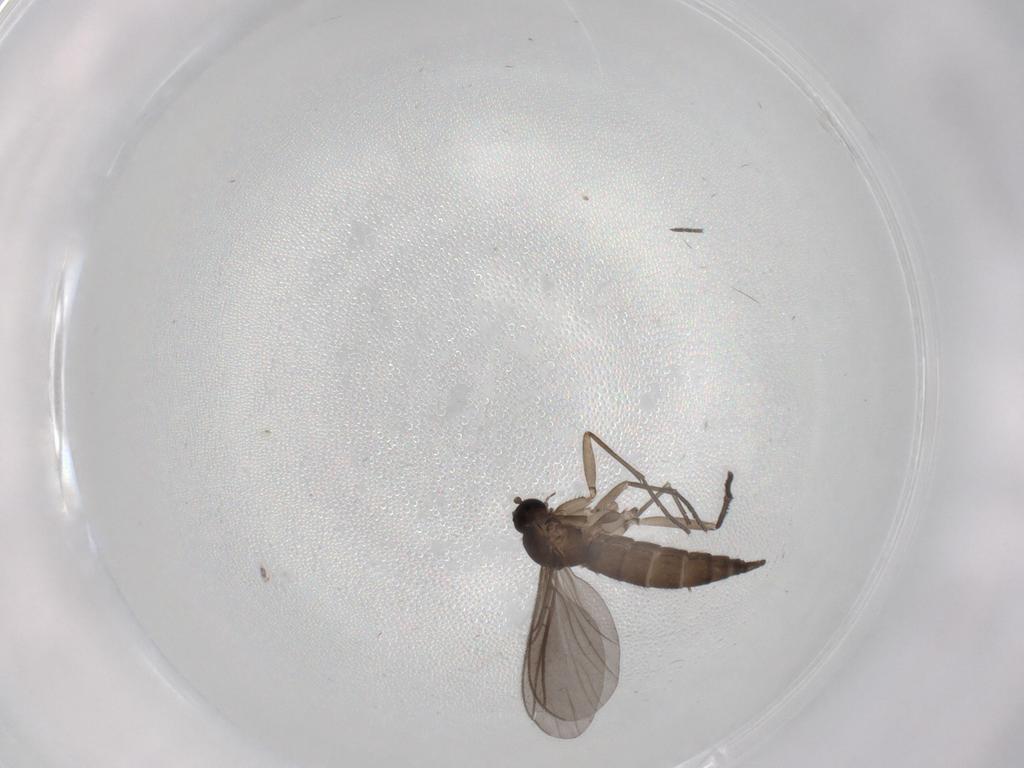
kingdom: Animalia
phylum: Arthropoda
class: Insecta
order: Diptera
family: Sciaridae
